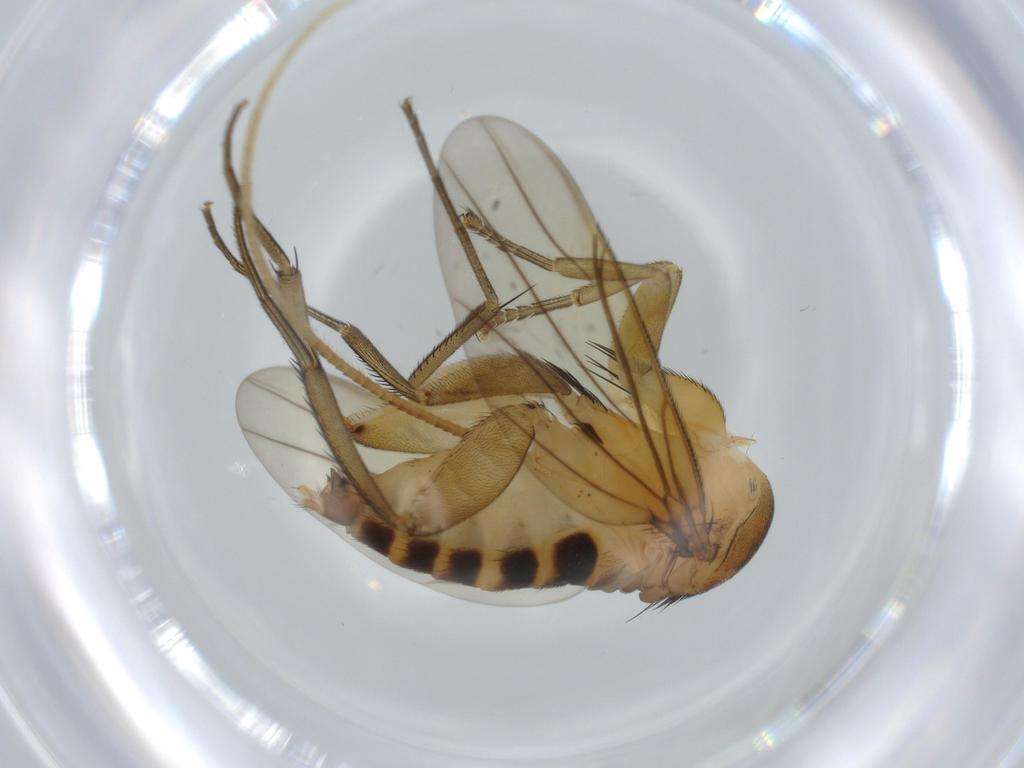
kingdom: Animalia
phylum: Arthropoda
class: Insecta
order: Diptera
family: Phoridae
